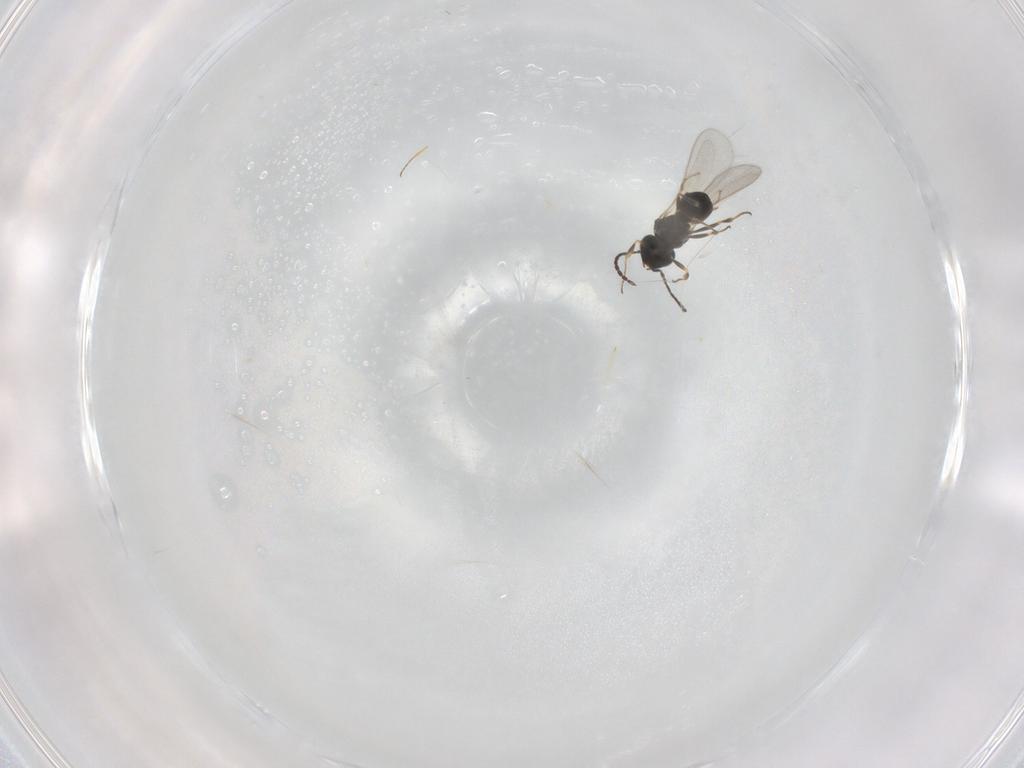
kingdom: Animalia
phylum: Arthropoda
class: Insecta
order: Hymenoptera
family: Scelionidae
